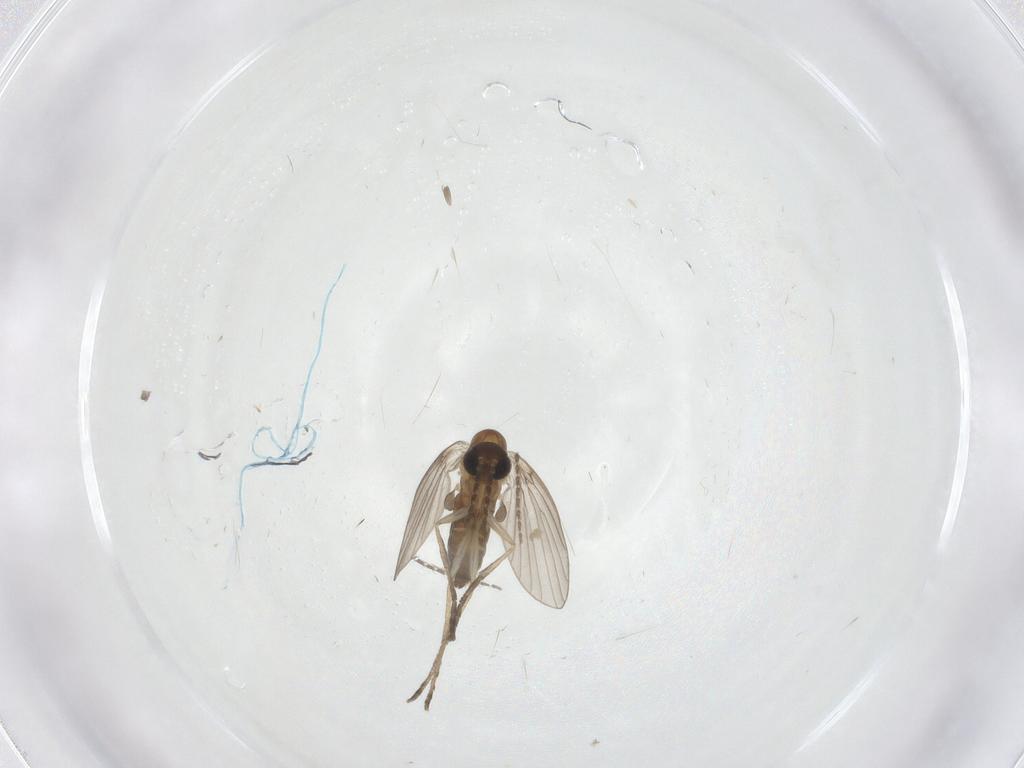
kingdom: Animalia
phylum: Arthropoda
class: Insecta
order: Diptera
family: Cecidomyiidae
